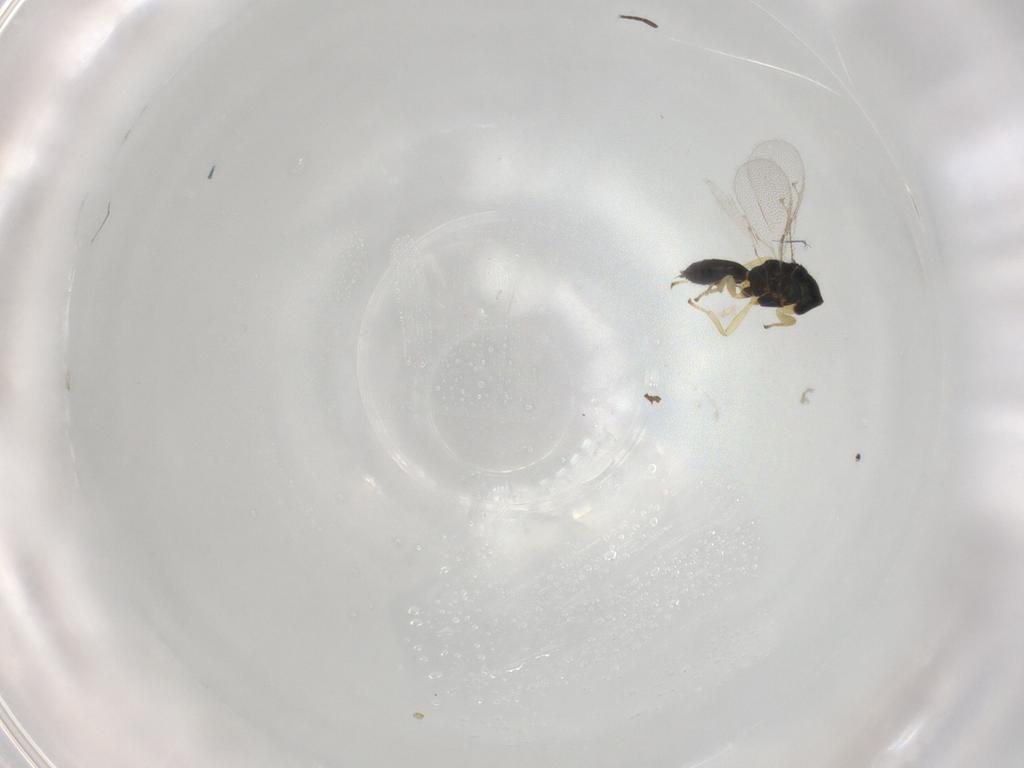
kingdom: Animalia
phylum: Arthropoda
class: Insecta
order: Hymenoptera
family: Pirenidae
